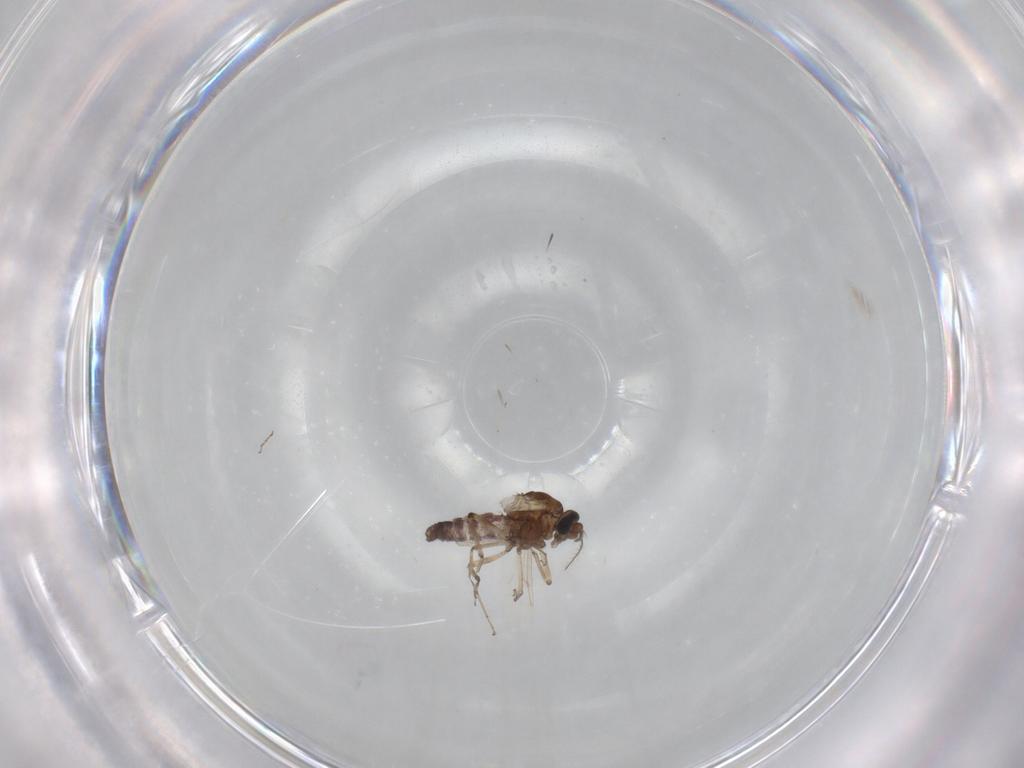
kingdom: Animalia
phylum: Arthropoda
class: Insecta
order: Diptera
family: Ceratopogonidae
